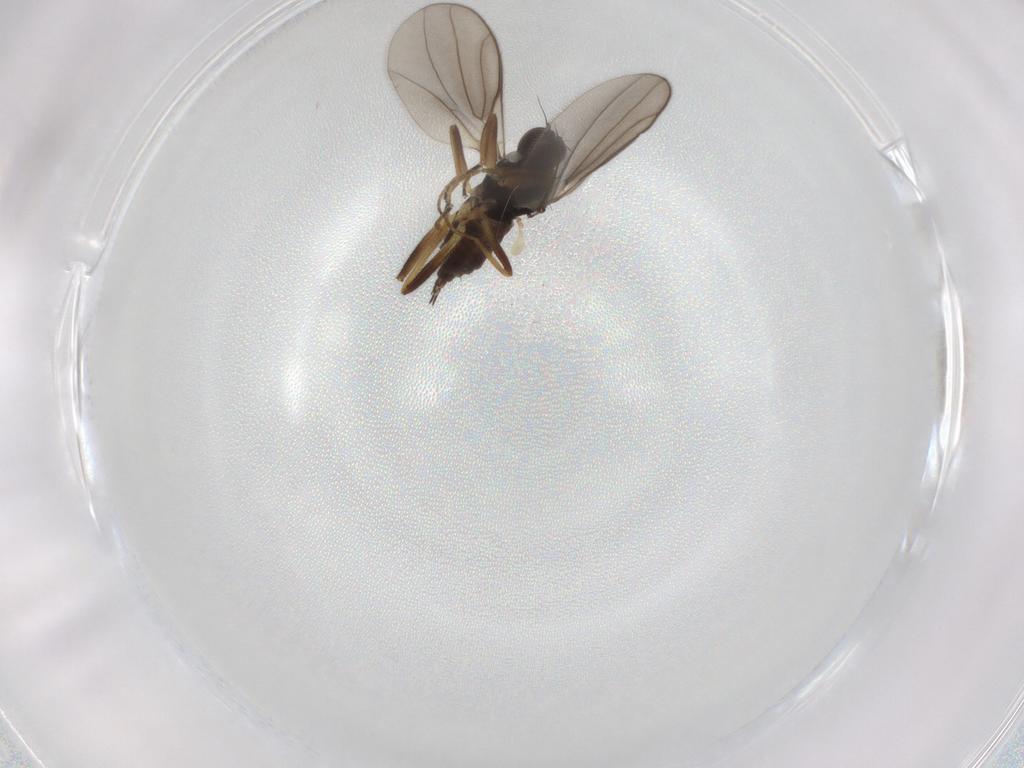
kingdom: Animalia
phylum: Arthropoda
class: Insecta
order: Diptera
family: Hybotidae
